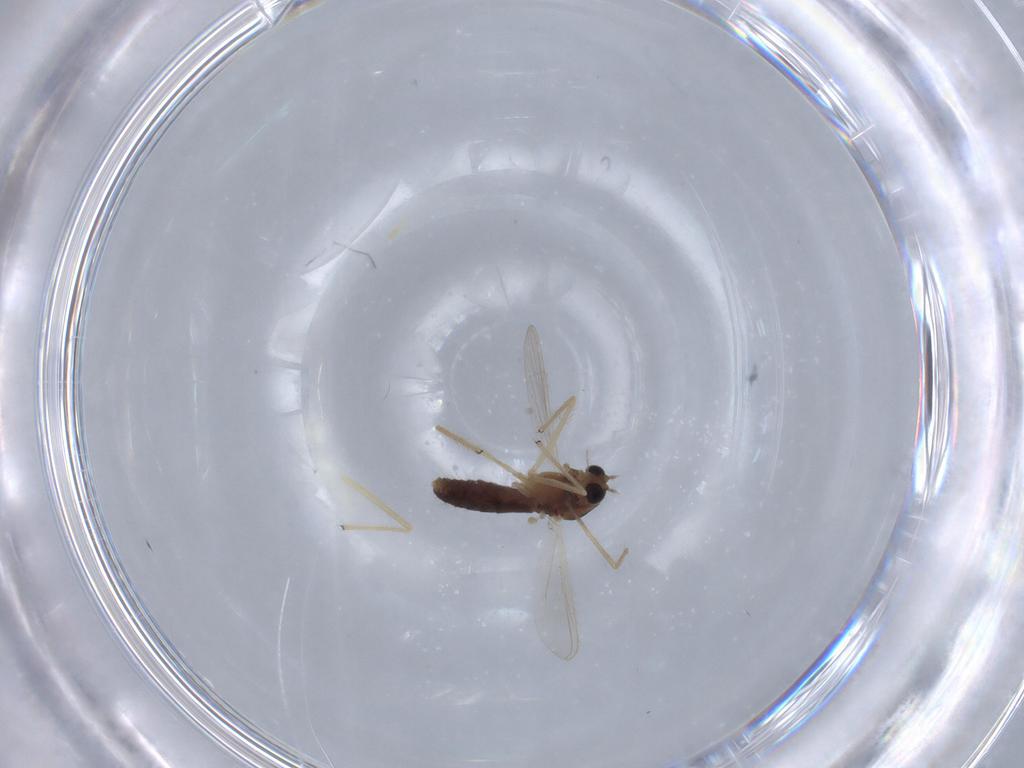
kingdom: Animalia
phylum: Arthropoda
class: Insecta
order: Diptera
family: Chironomidae
